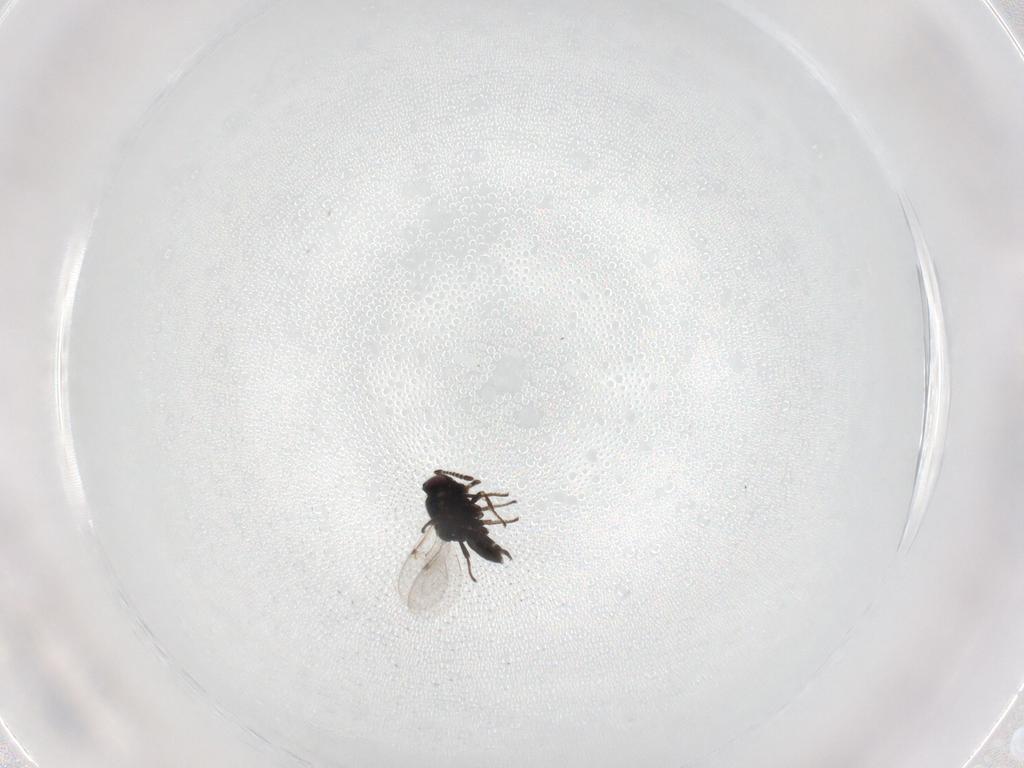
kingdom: Animalia
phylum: Arthropoda
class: Insecta
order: Hymenoptera
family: Encyrtidae
